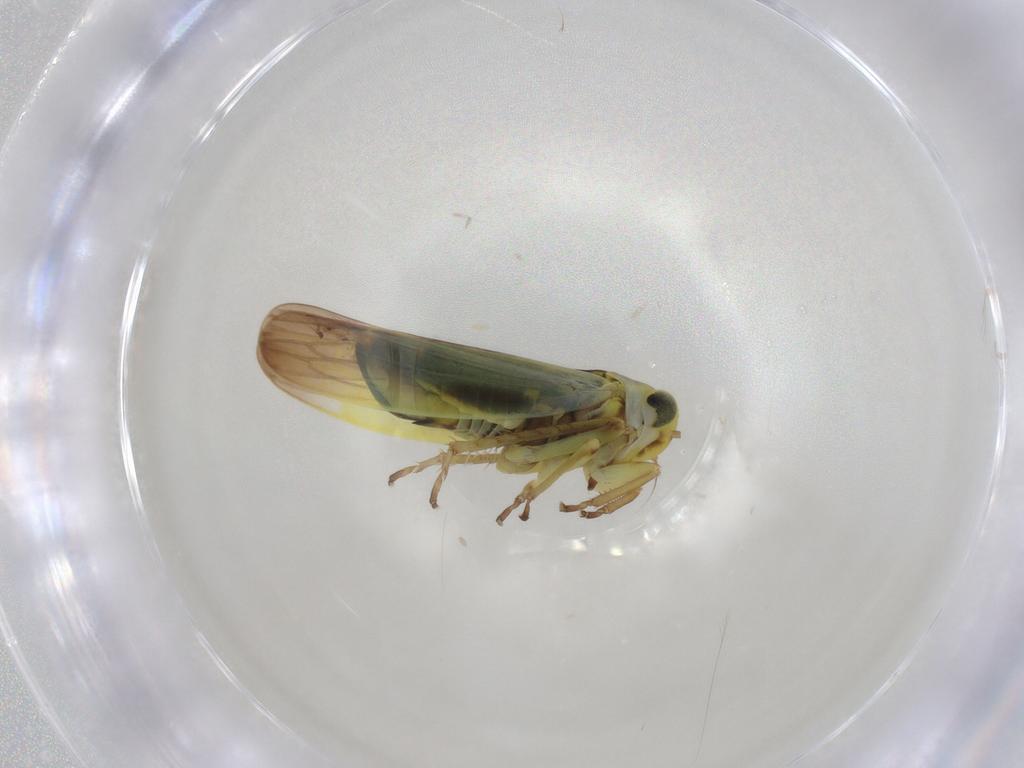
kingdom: Animalia
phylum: Arthropoda
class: Insecta
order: Hemiptera
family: Cicadellidae
